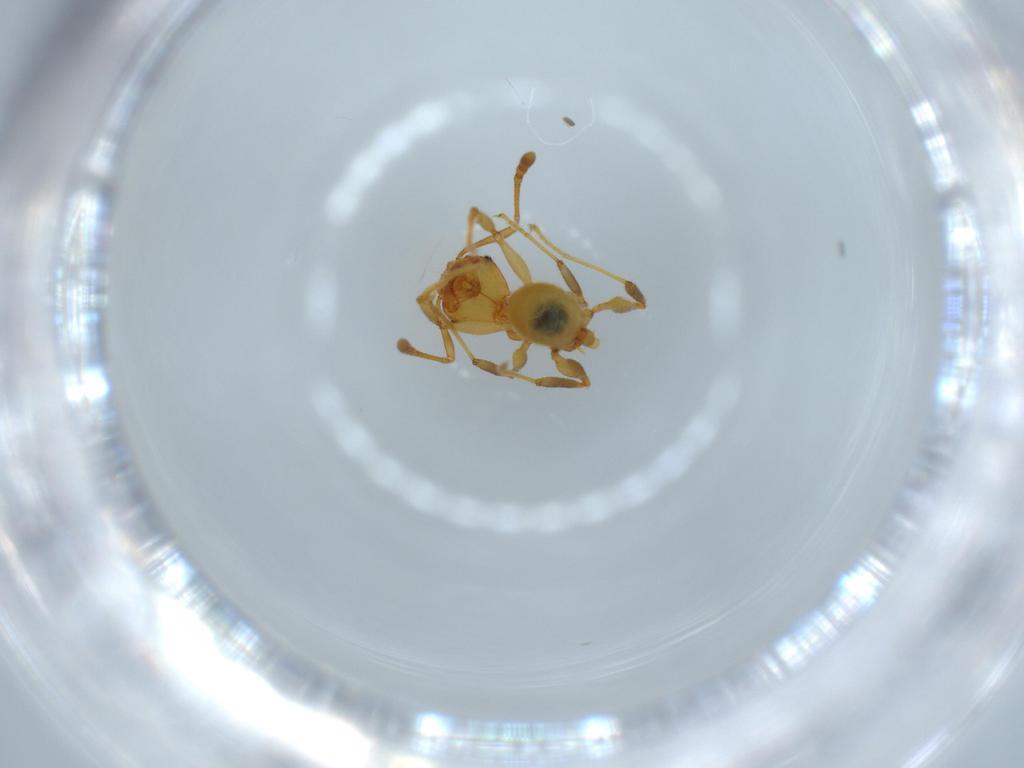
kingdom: Animalia
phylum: Arthropoda
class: Insecta
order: Hymenoptera
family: Formicidae
